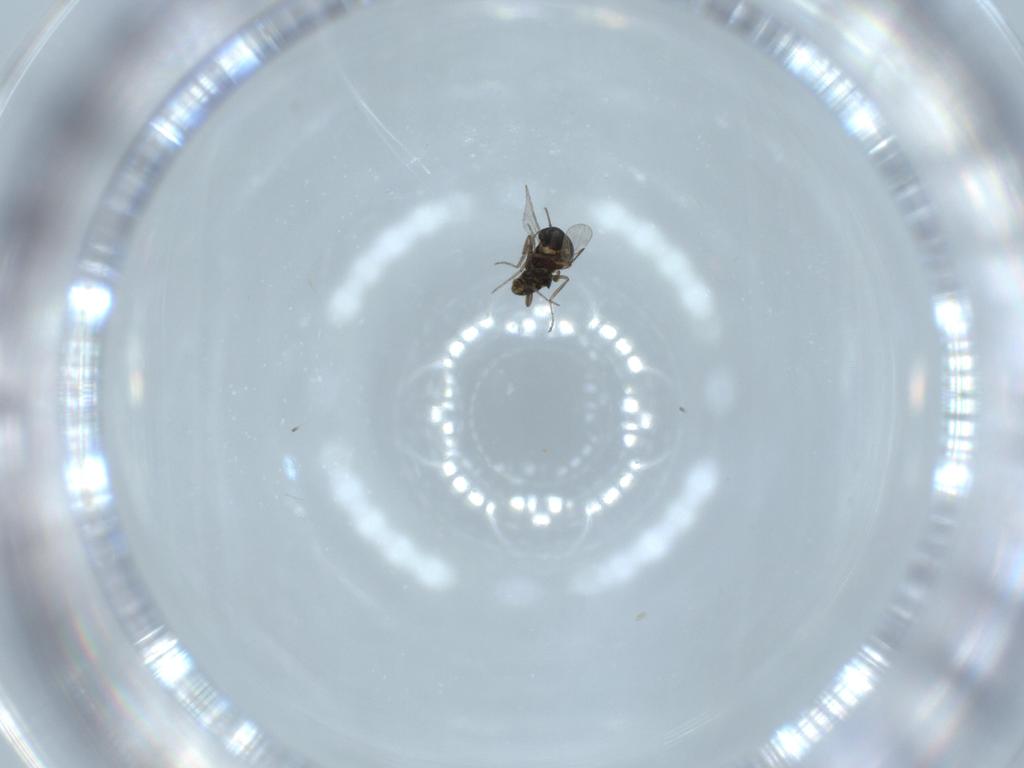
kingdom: Animalia
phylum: Arthropoda
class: Insecta
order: Diptera
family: Ceratopogonidae
